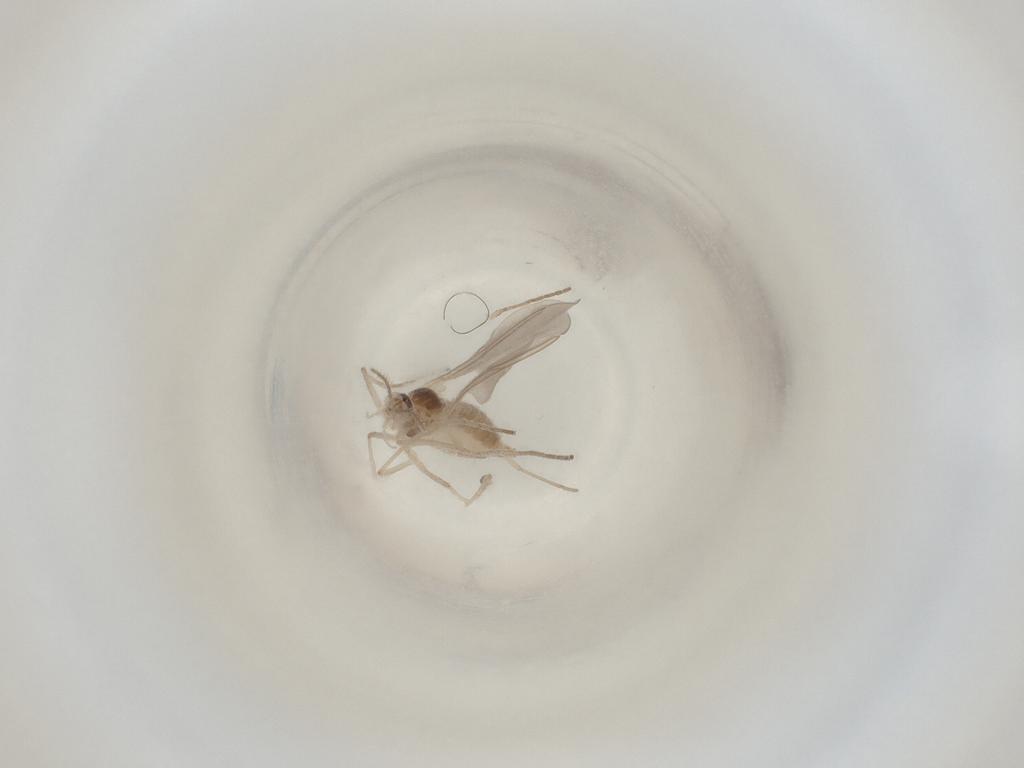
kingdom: Animalia
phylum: Arthropoda
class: Insecta
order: Diptera
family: Cecidomyiidae
